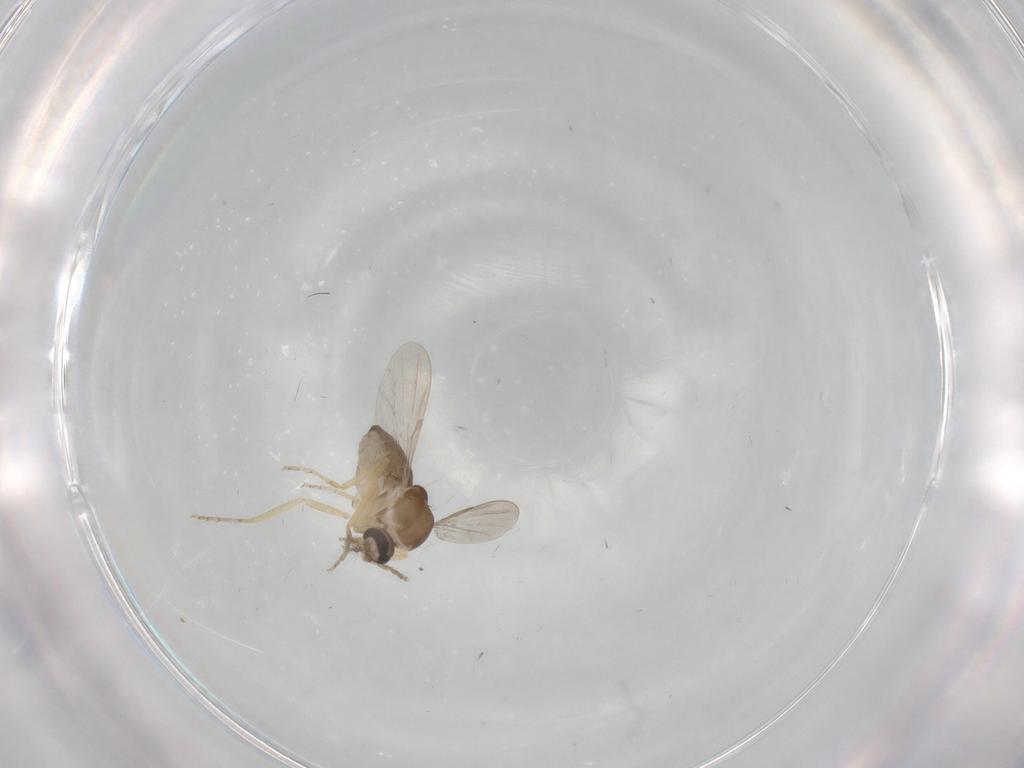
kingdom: Animalia
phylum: Arthropoda
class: Insecta
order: Diptera
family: Ceratopogonidae
